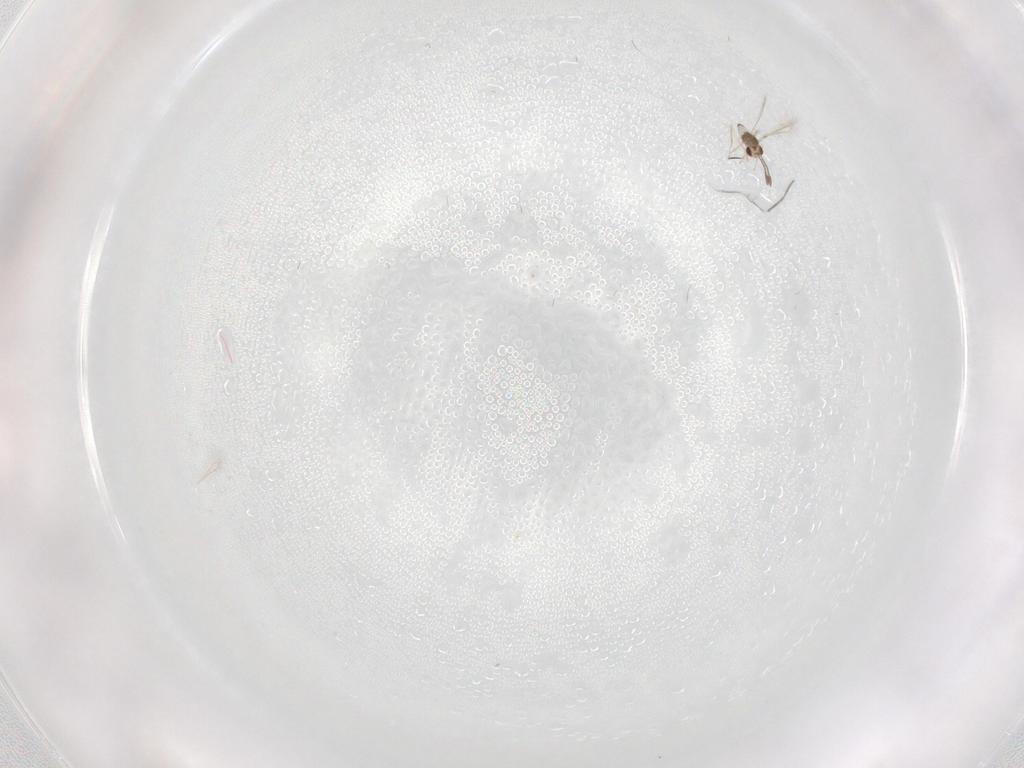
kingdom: Animalia
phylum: Arthropoda
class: Insecta
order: Hymenoptera
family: Mymaridae
